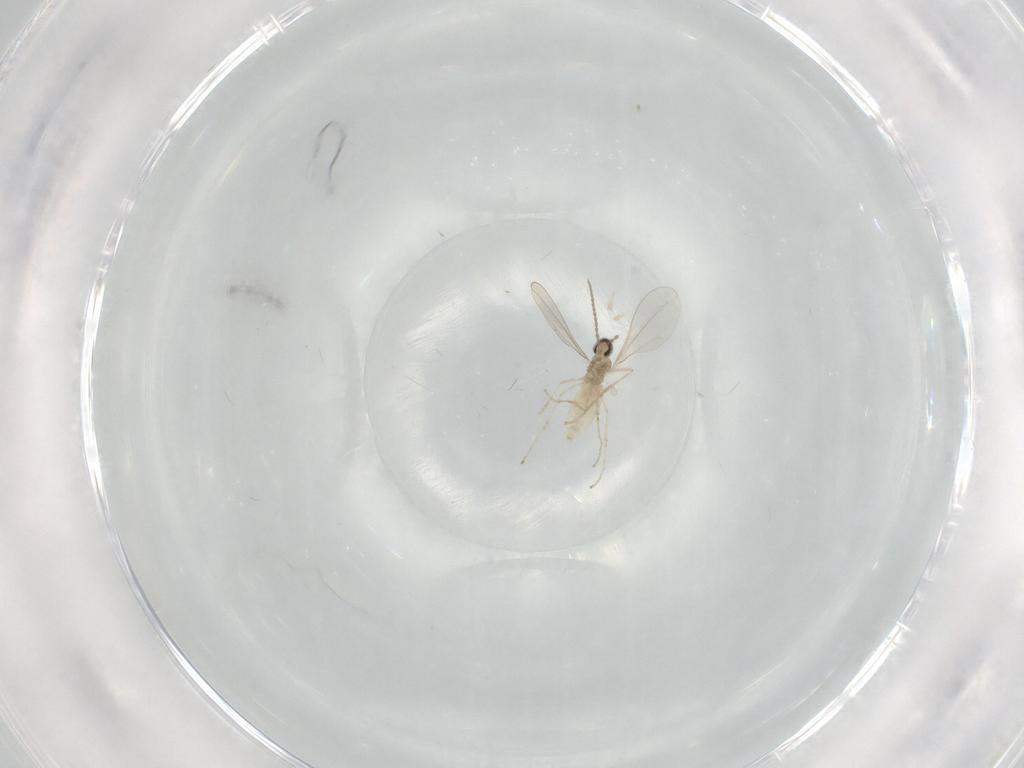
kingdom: Animalia
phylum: Arthropoda
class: Insecta
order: Diptera
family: Cecidomyiidae
